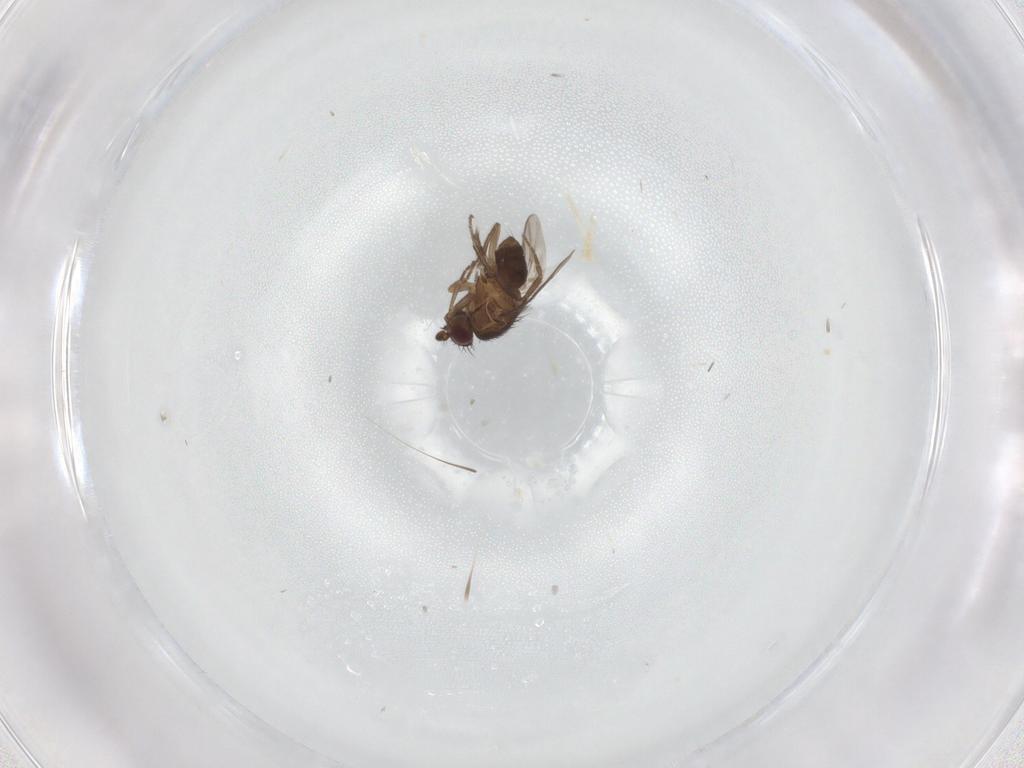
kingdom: Animalia
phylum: Arthropoda
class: Insecta
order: Diptera
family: Sphaeroceridae
